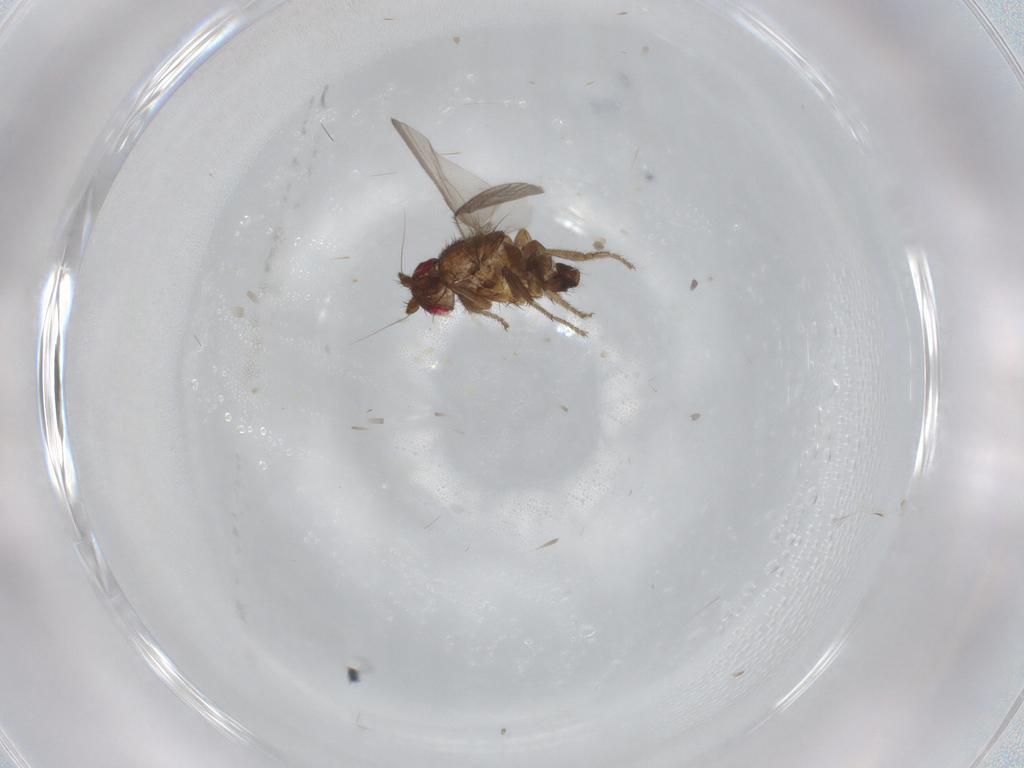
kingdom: Animalia
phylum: Arthropoda
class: Insecta
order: Diptera
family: Sphaeroceridae
